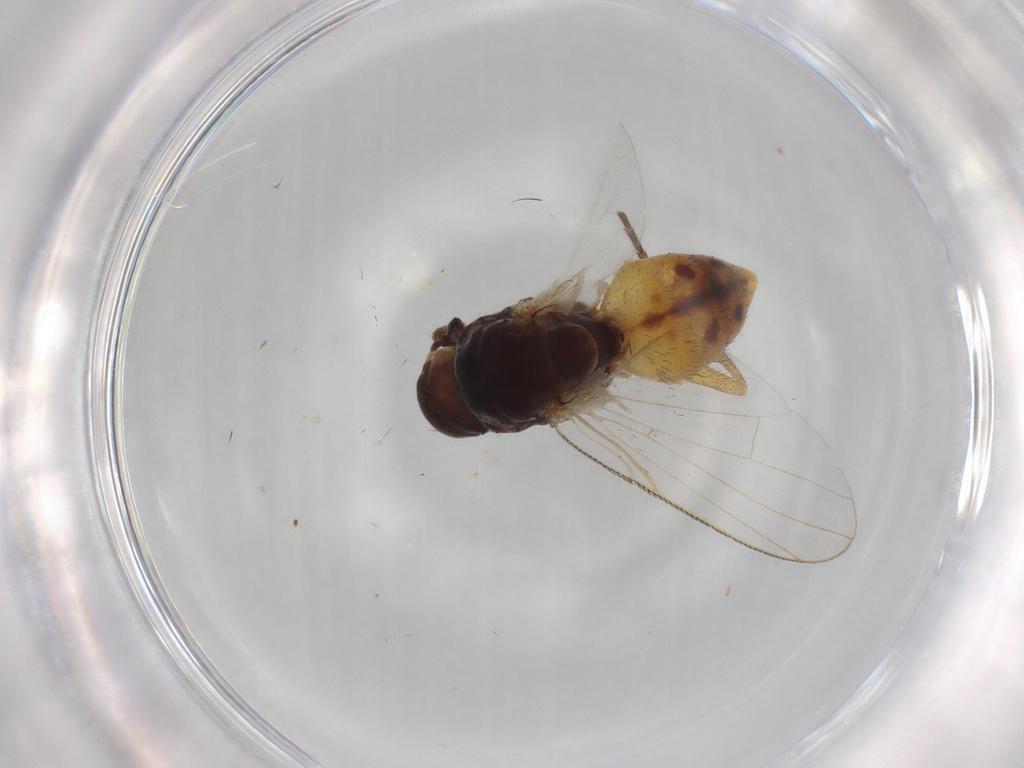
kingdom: Animalia
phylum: Arthropoda
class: Insecta
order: Diptera
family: Ceratopogonidae
